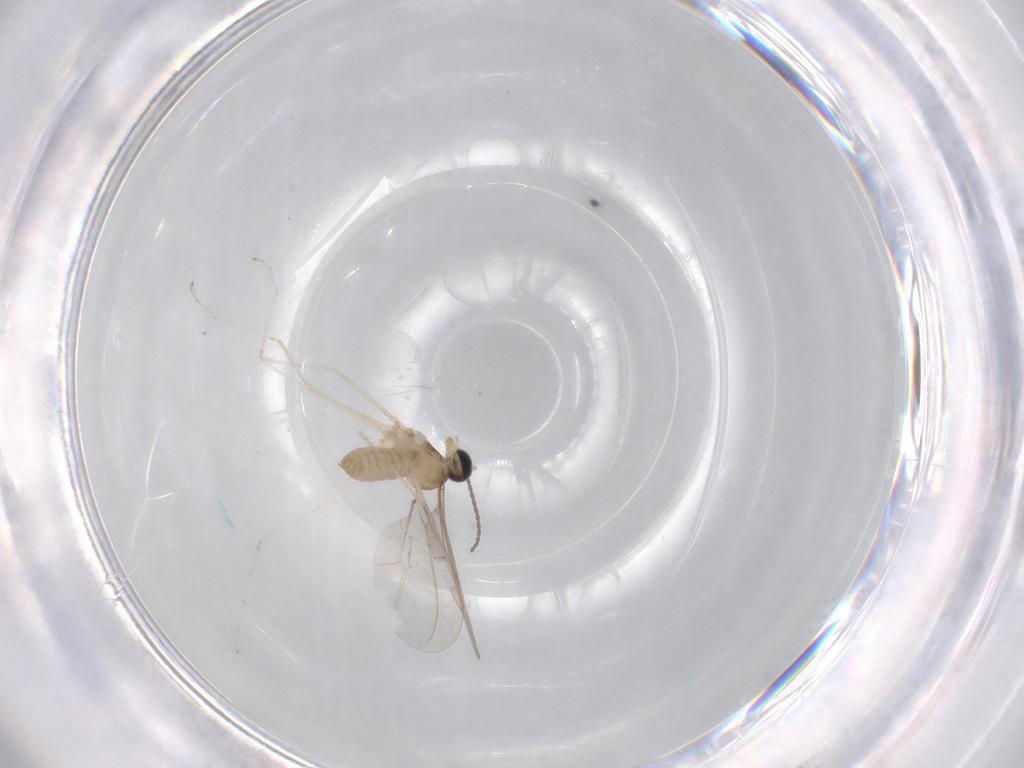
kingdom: Animalia
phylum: Arthropoda
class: Insecta
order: Diptera
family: Cecidomyiidae
